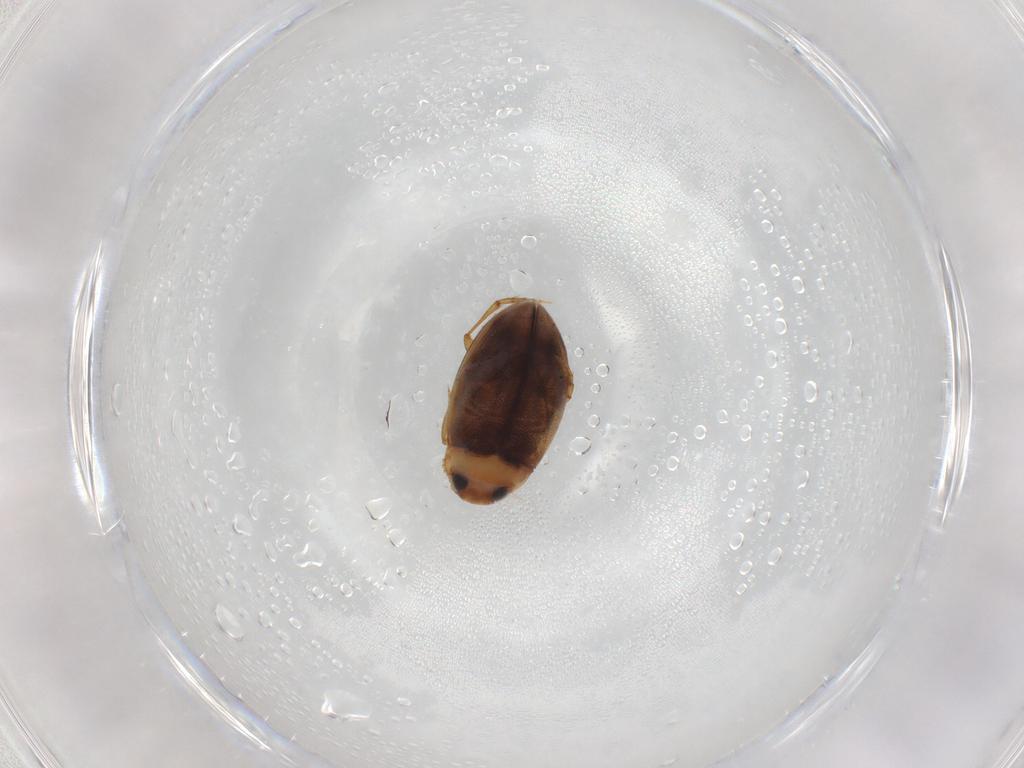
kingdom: Animalia
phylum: Arthropoda
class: Insecta
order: Coleoptera
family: Dytiscidae
